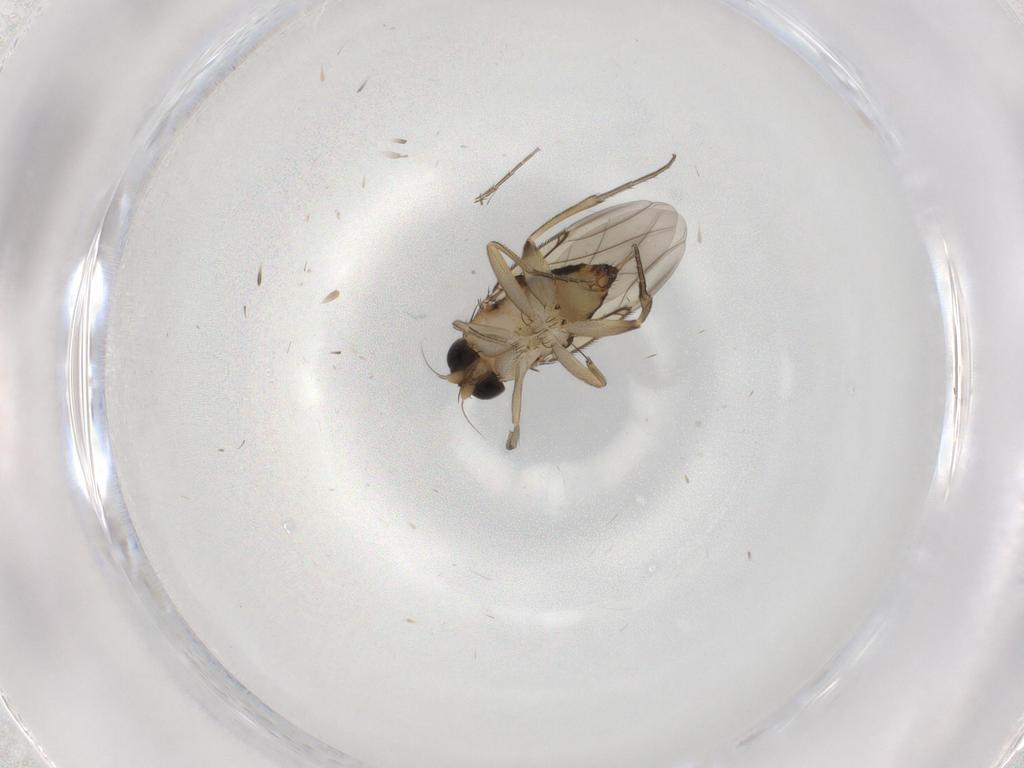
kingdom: Animalia
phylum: Arthropoda
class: Insecta
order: Diptera
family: Phoridae
